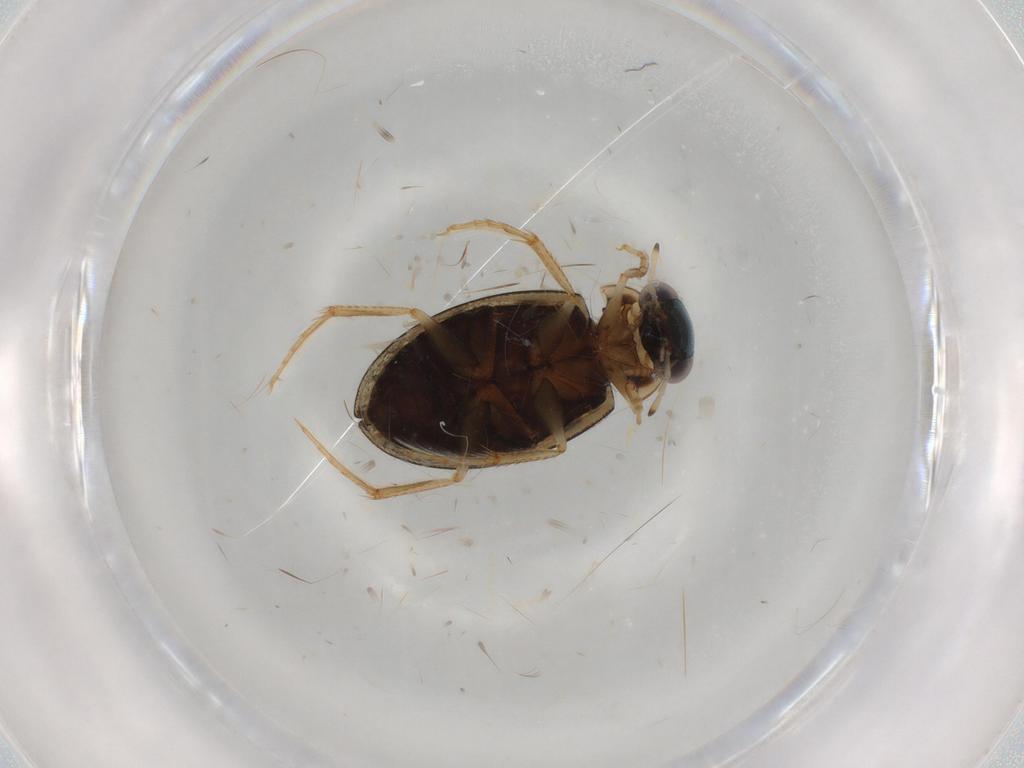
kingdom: Animalia
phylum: Arthropoda
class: Insecta
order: Coleoptera
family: Hydrophilidae
